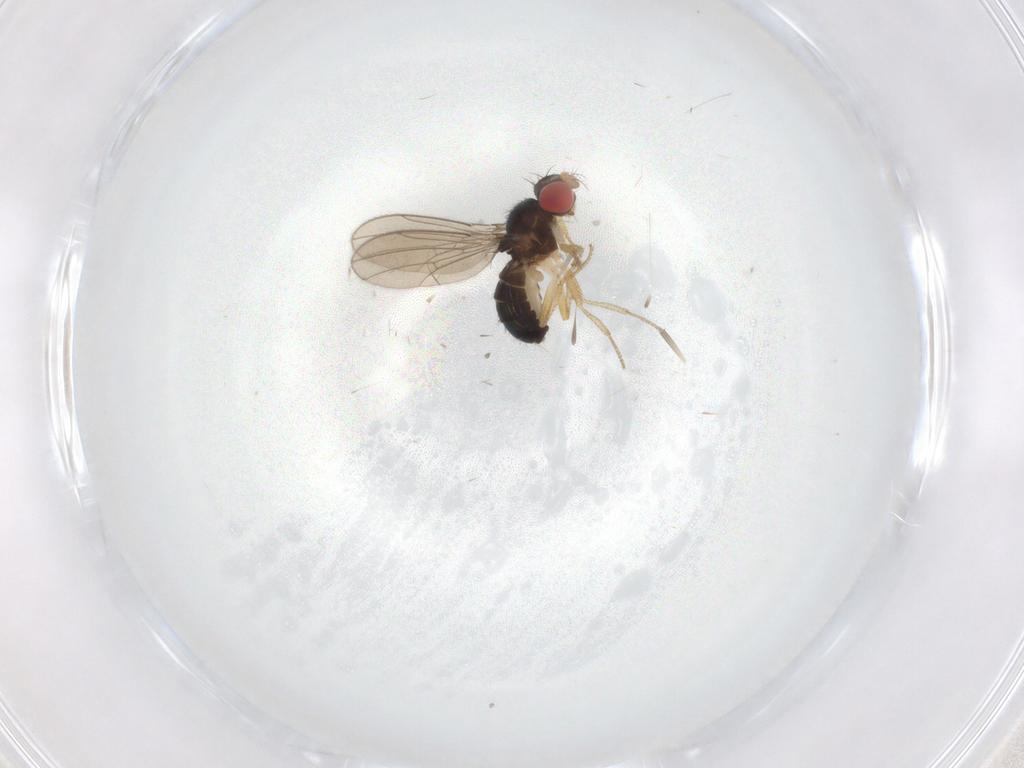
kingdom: Animalia
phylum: Arthropoda
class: Insecta
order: Diptera
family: Drosophilidae
